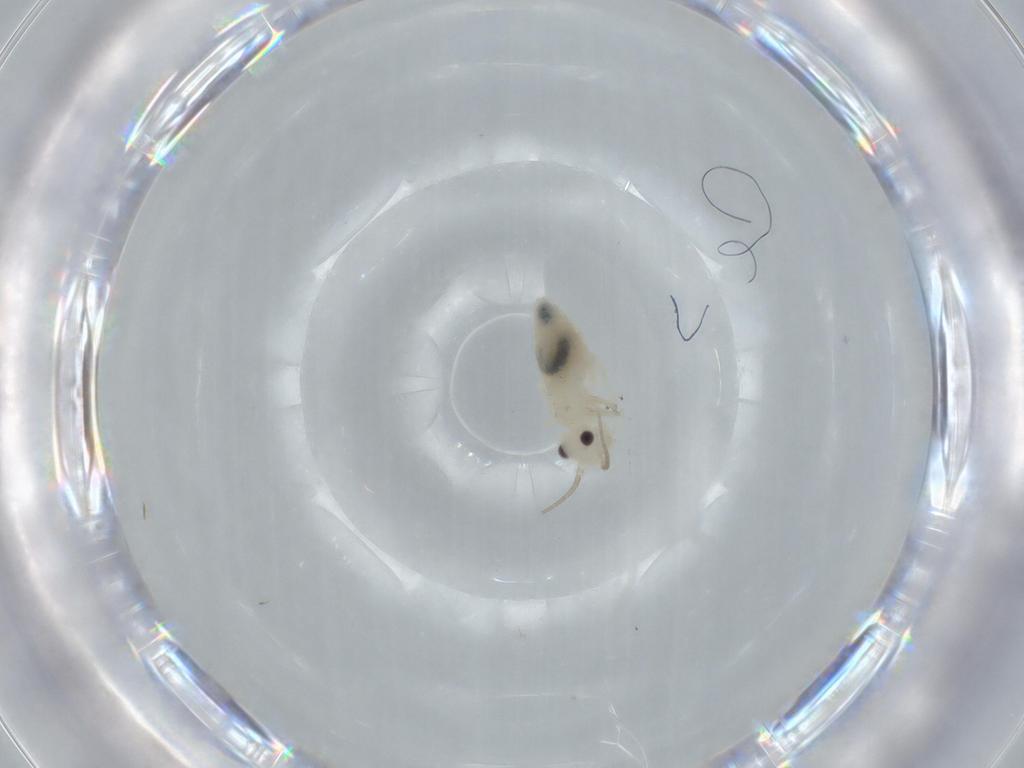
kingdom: Animalia
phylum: Arthropoda
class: Insecta
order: Psocodea
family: Caeciliusidae
